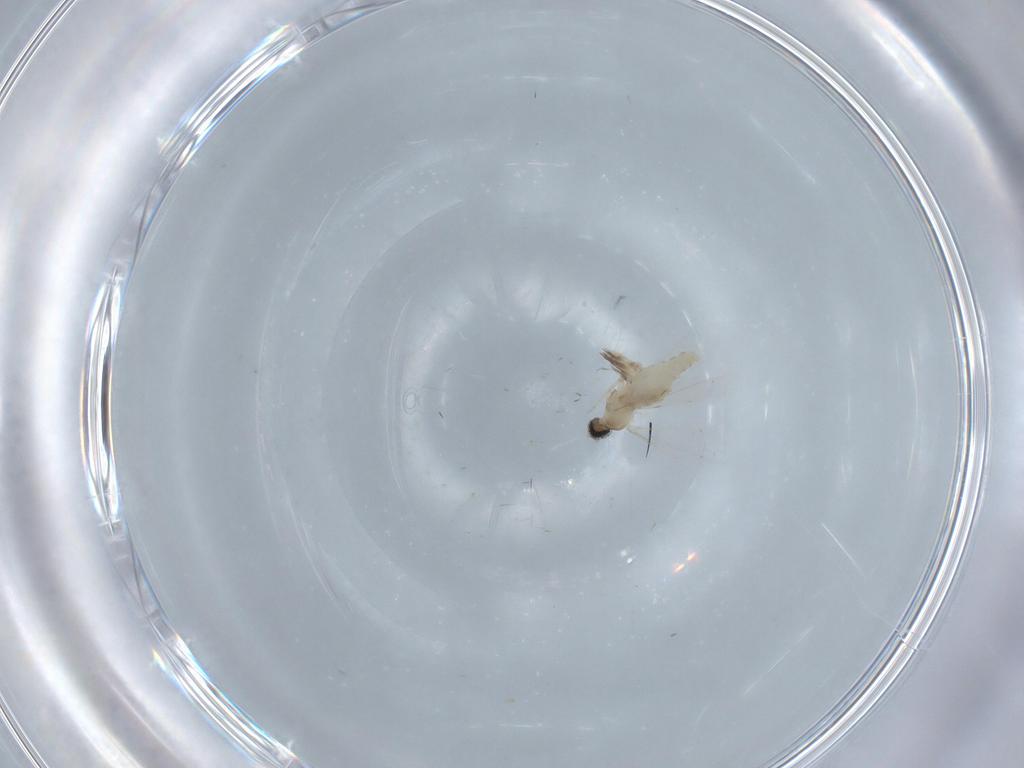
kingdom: Animalia
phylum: Arthropoda
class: Insecta
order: Diptera
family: Cecidomyiidae
